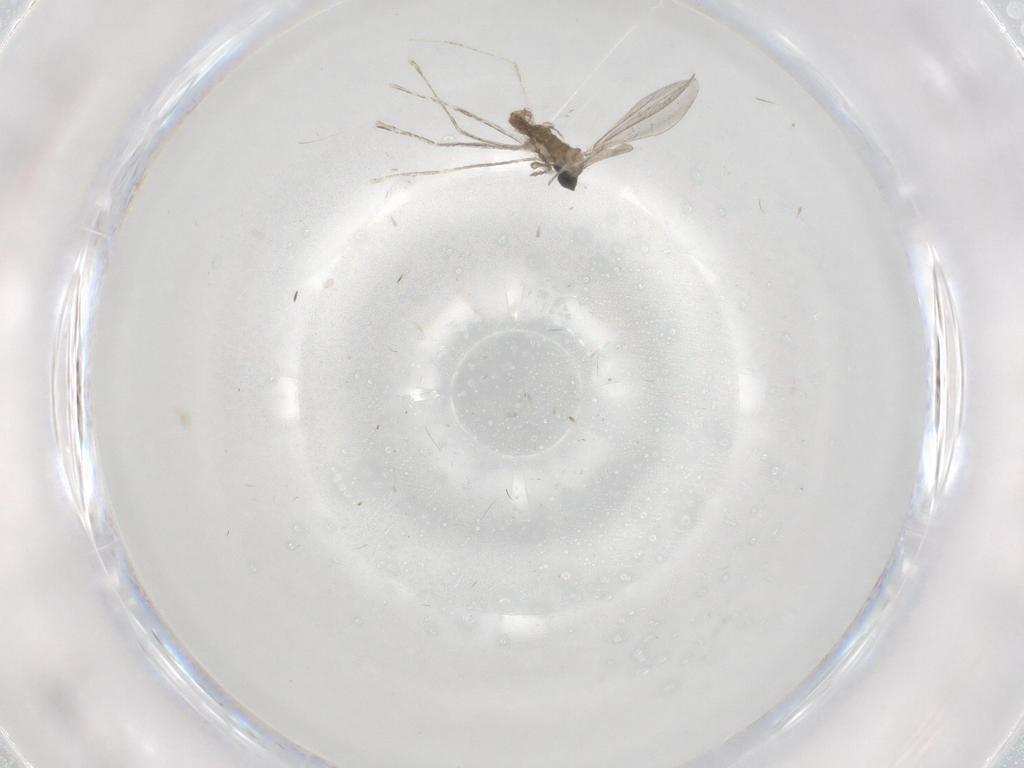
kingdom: Animalia
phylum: Arthropoda
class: Insecta
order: Diptera
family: Cecidomyiidae
